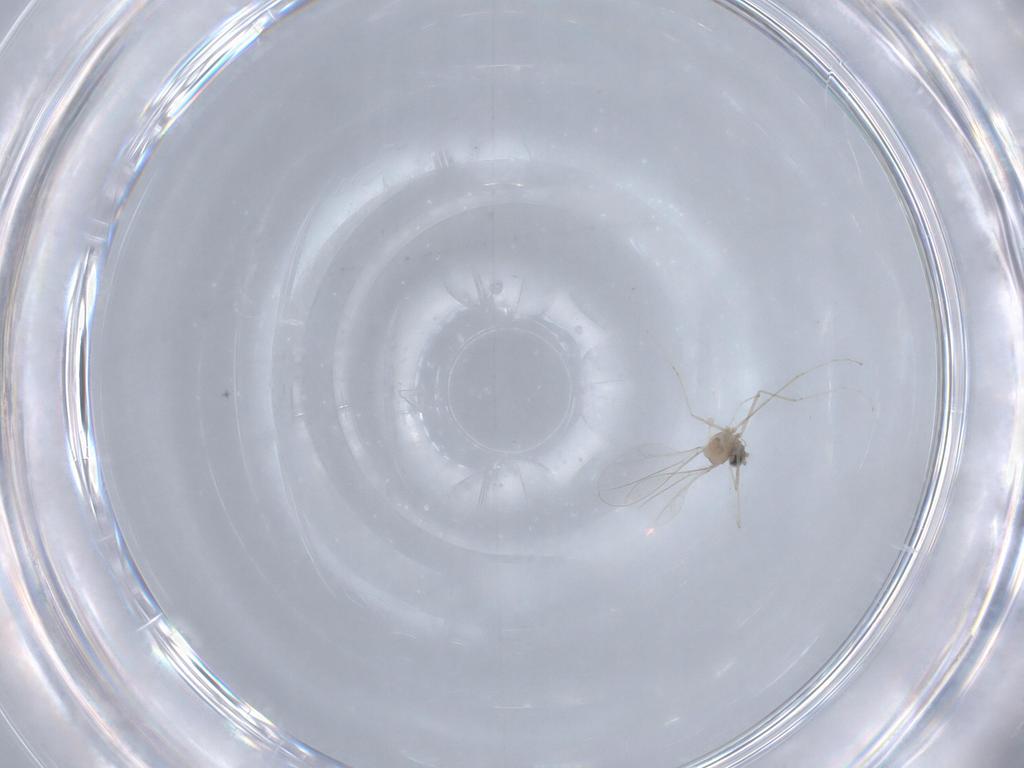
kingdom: Animalia
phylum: Arthropoda
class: Insecta
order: Diptera
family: Cecidomyiidae
